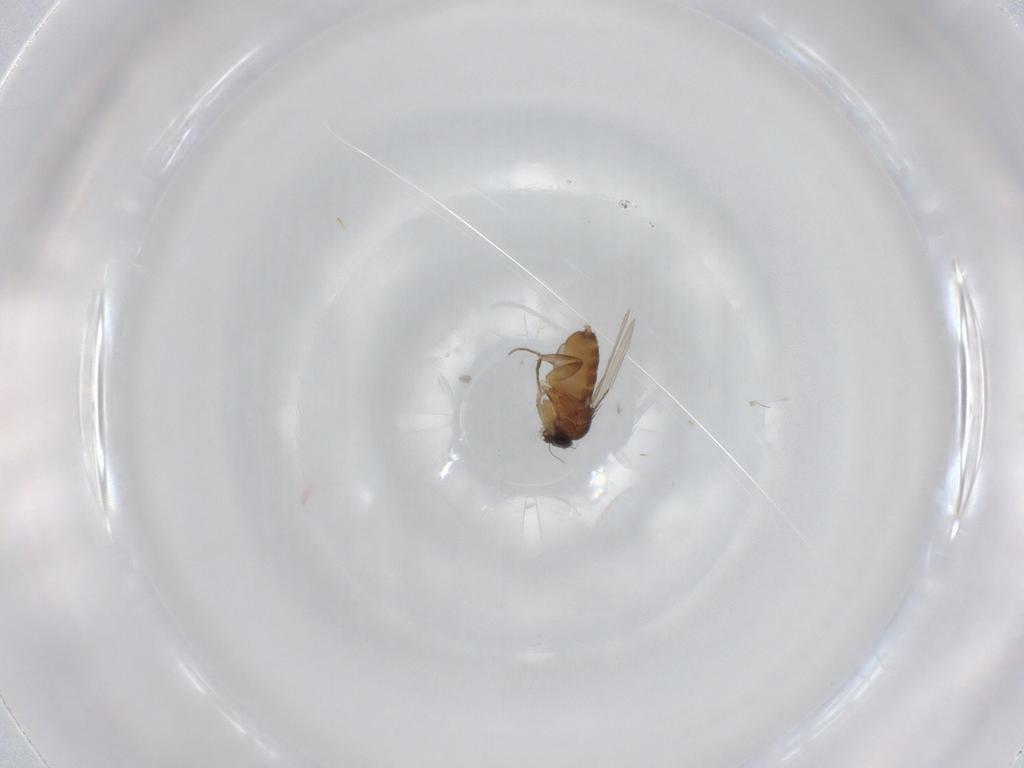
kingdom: Animalia
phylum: Arthropoda
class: Insecta
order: Diptera
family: Phoridae
